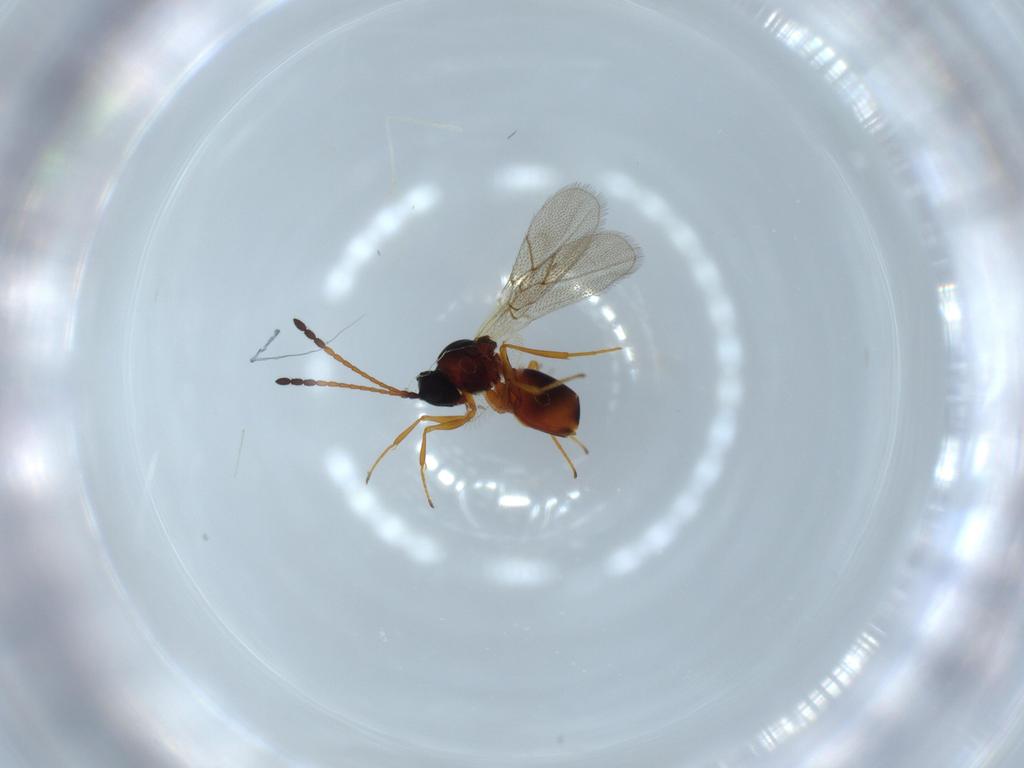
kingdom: Animalia
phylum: Arthropoda
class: Insecta
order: Hymenoptera
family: Figitidae
